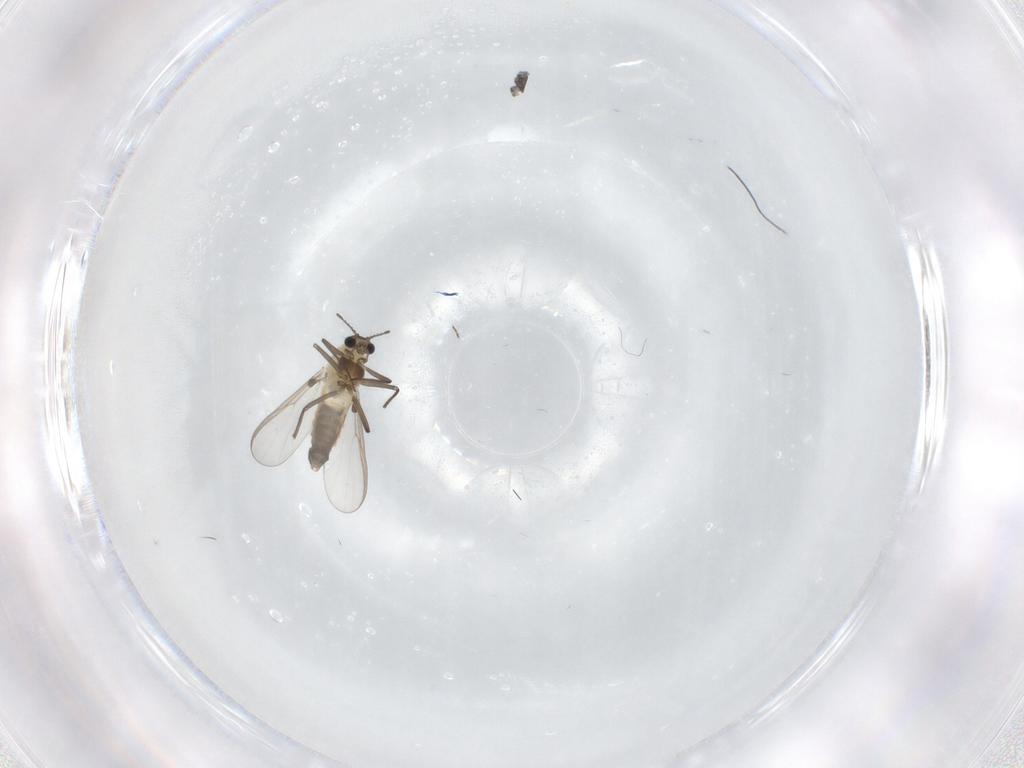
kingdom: Animalia
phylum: Arthropoda
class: Insecta
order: Diptera
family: Chironomidae
